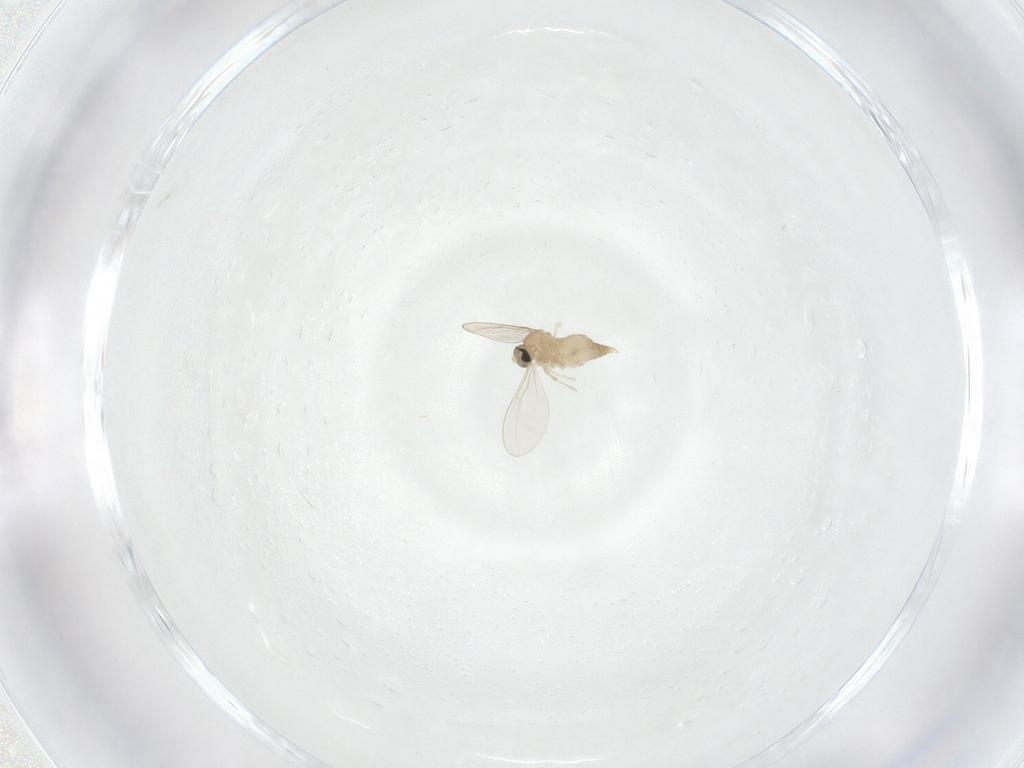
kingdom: Animalia
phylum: Arthropoda
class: Insecta
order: Diptera
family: Cecidomyiidae
